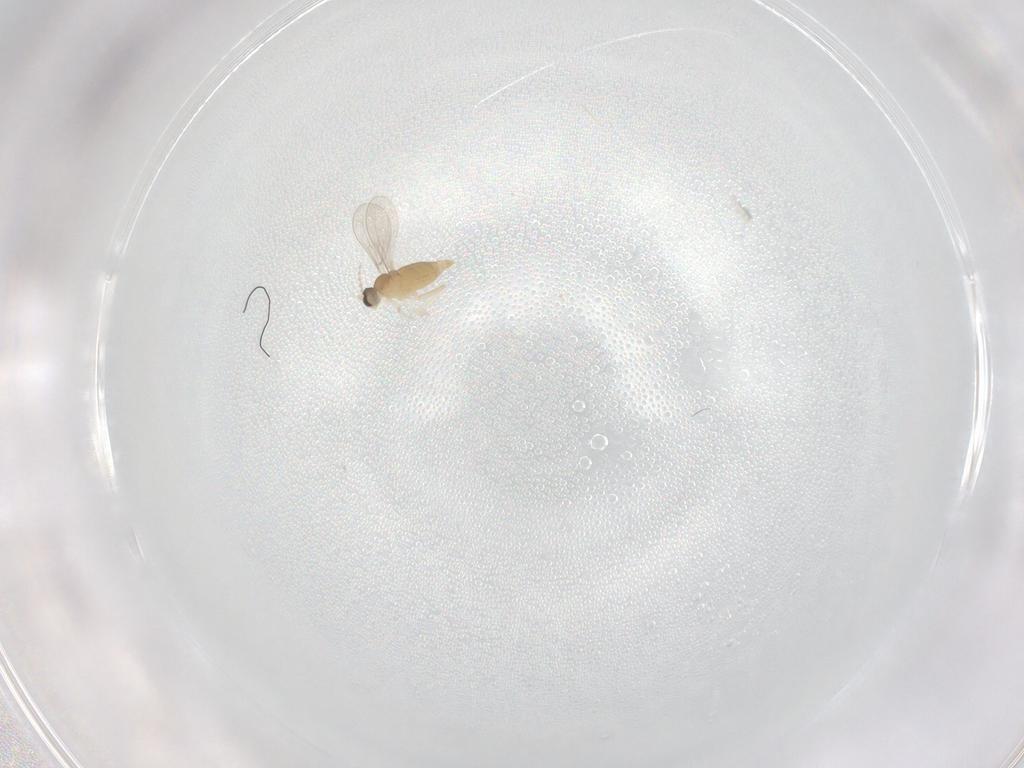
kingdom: Animalia
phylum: Arthropoda
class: Insecta
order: Diptera
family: Cecidomyiidae
